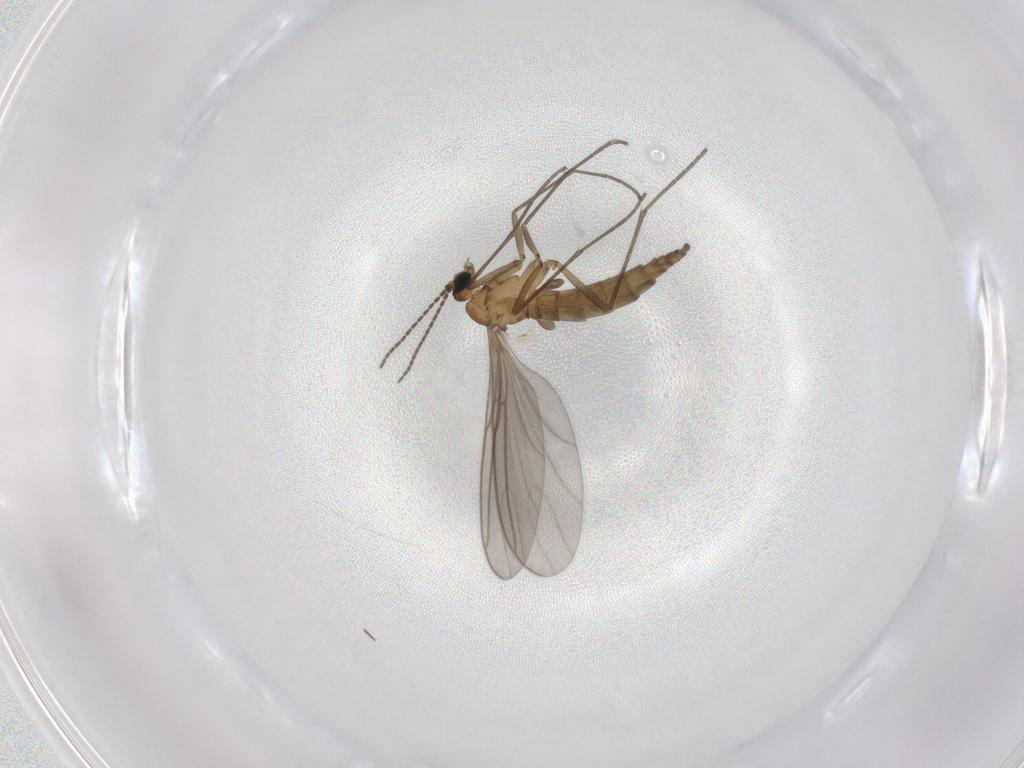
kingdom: Animalia
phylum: Arthropoda
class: Insecta
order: Diptera
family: Sciaridae
